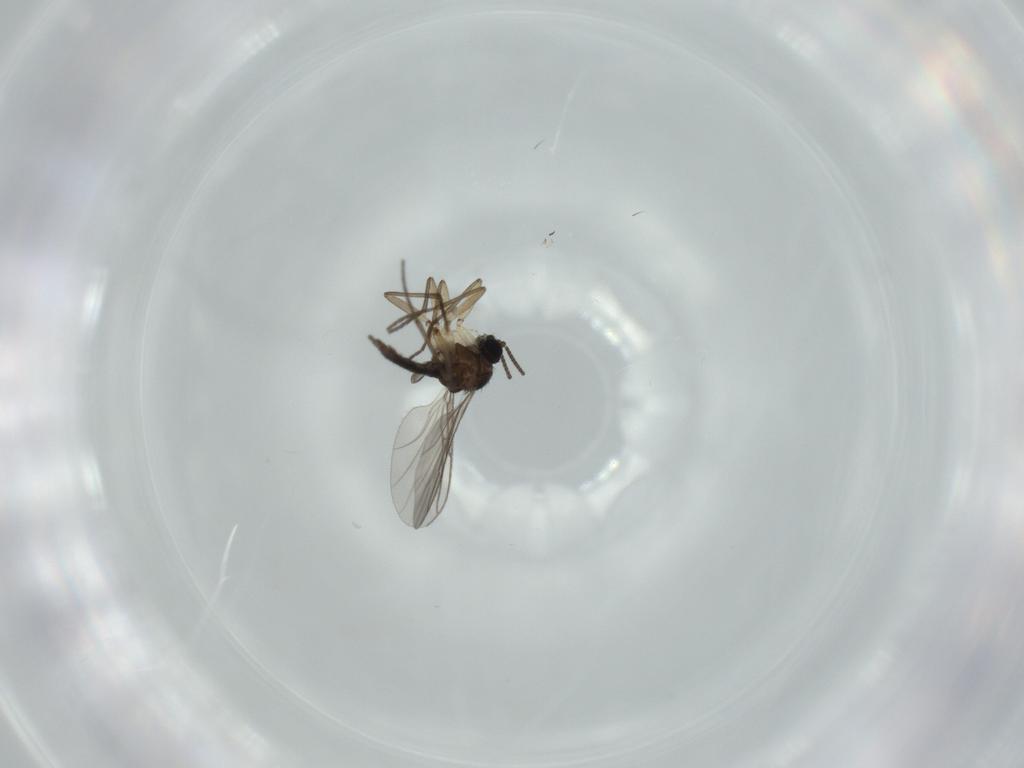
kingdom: Animalia
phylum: Arthropoda
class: Insecta
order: Diptera
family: Sciaridae
